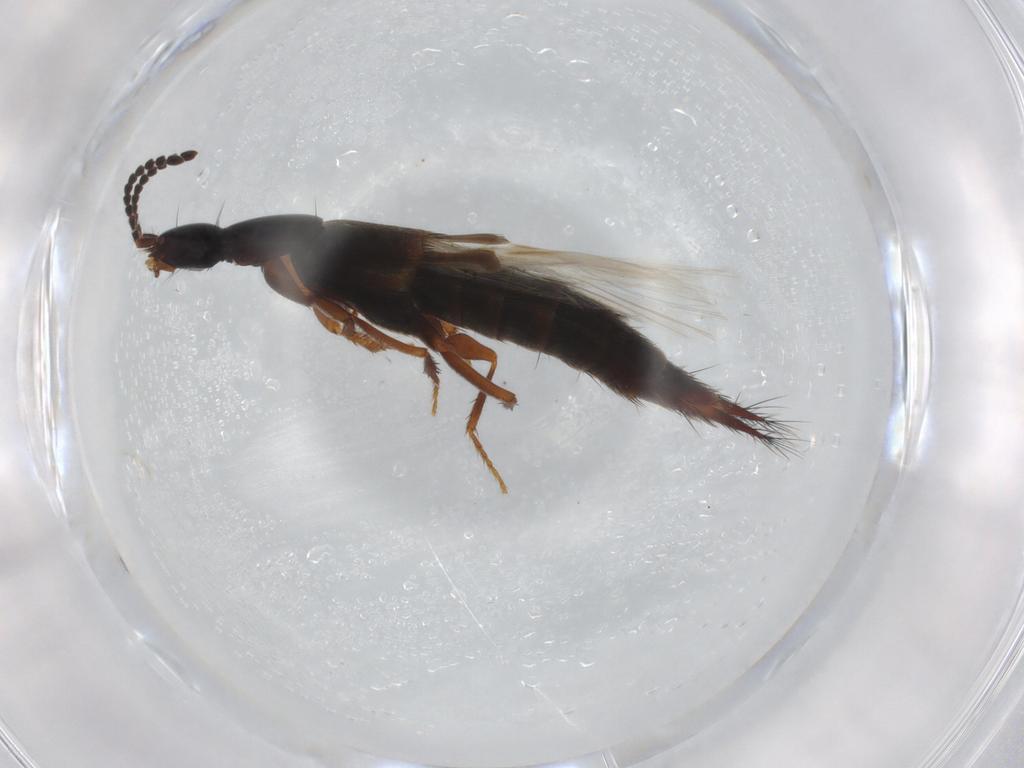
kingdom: Animalia
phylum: Arthropoda
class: Insecta
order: Coleoptera
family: Staphylinidae
